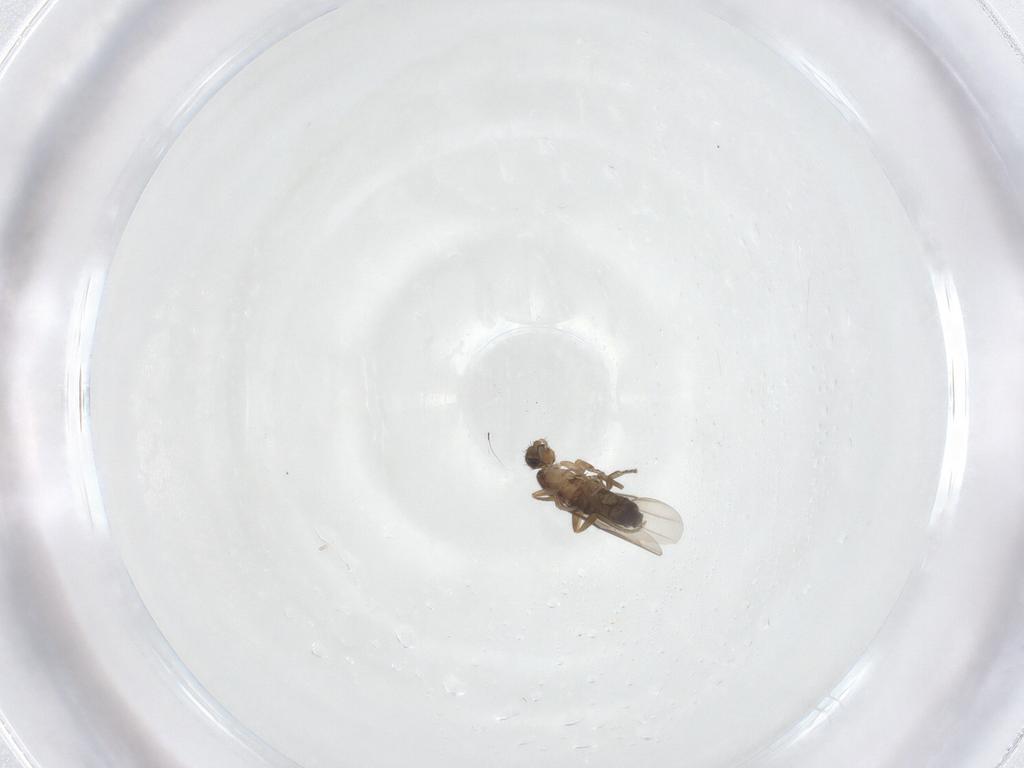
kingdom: Animalia
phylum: Arthropoda
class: Insecta
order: Diptera
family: Phoridae
